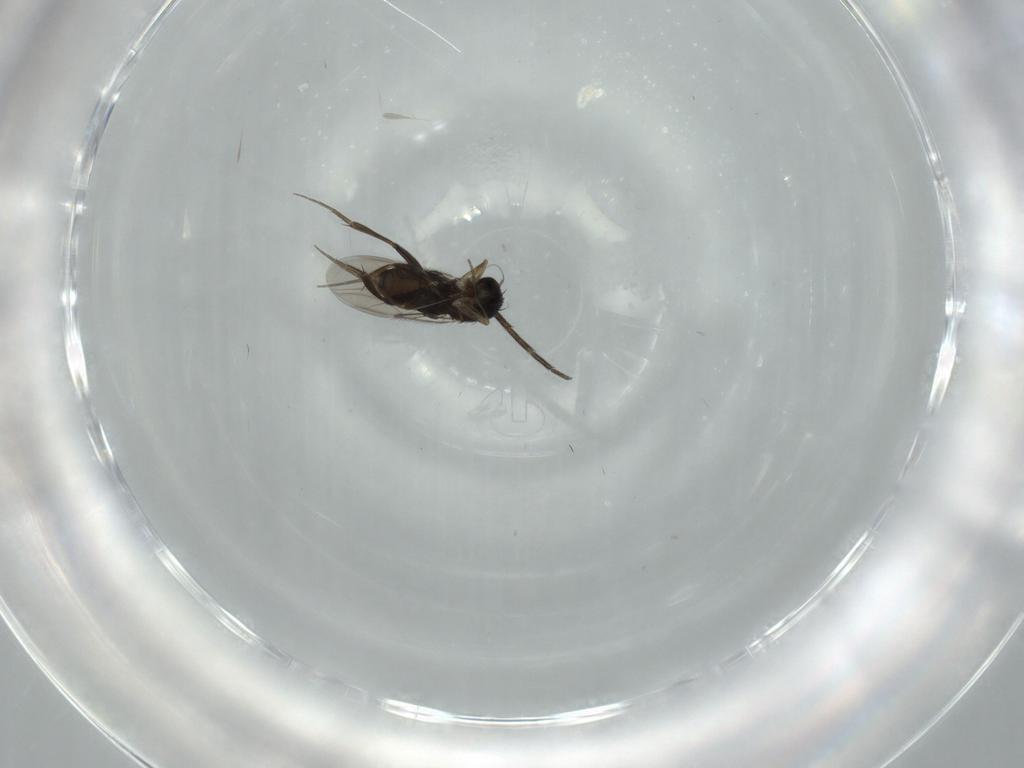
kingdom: Animalia
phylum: Arthropoda
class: Insecta
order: Diptera
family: Phoridae
